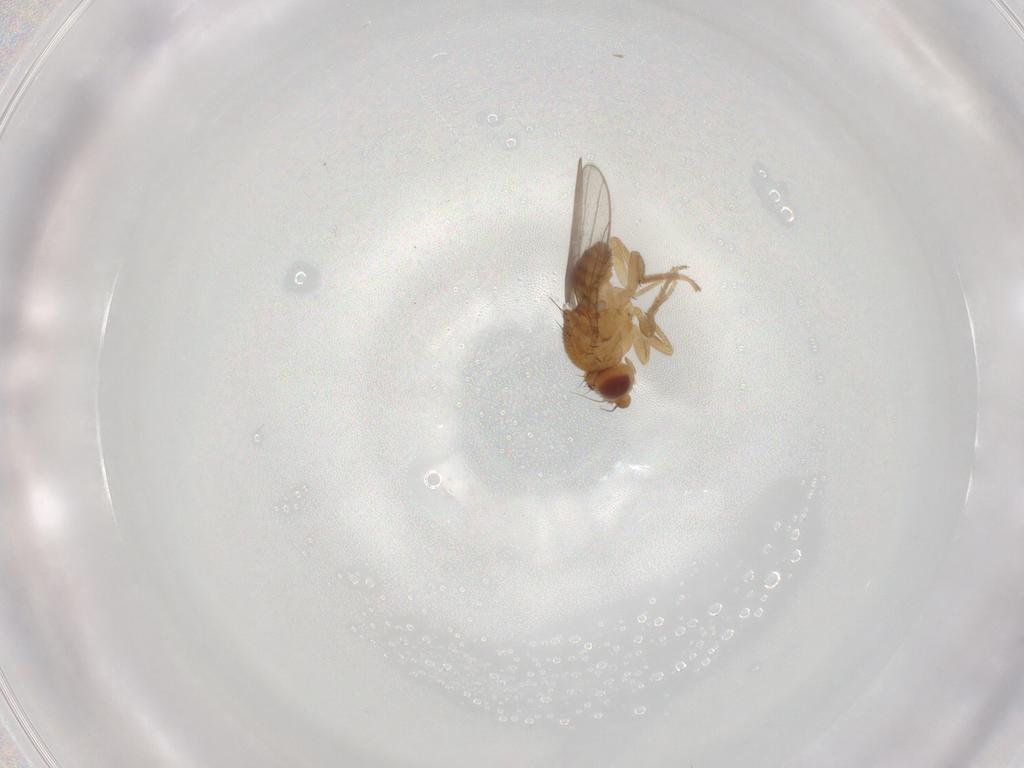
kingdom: Animalia
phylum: Arthropoda
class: Insecta
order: Diptera
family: Chloropidae
